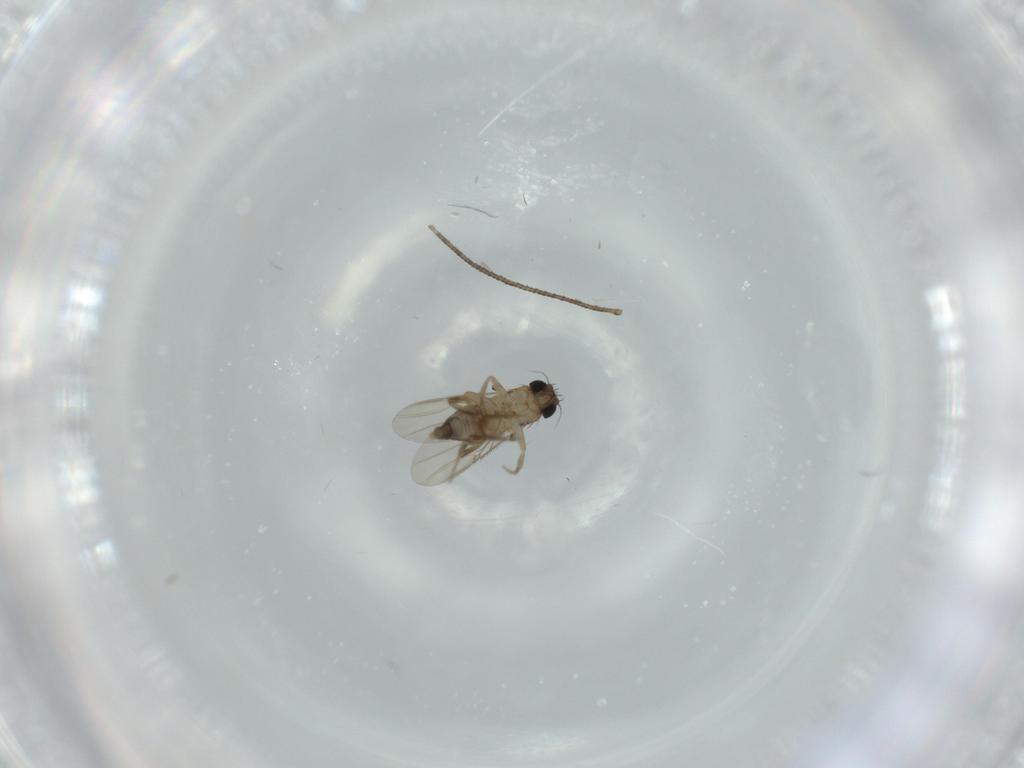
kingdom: Animalia
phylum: Arthropoda
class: Insecta
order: Diptera
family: Phoridae
